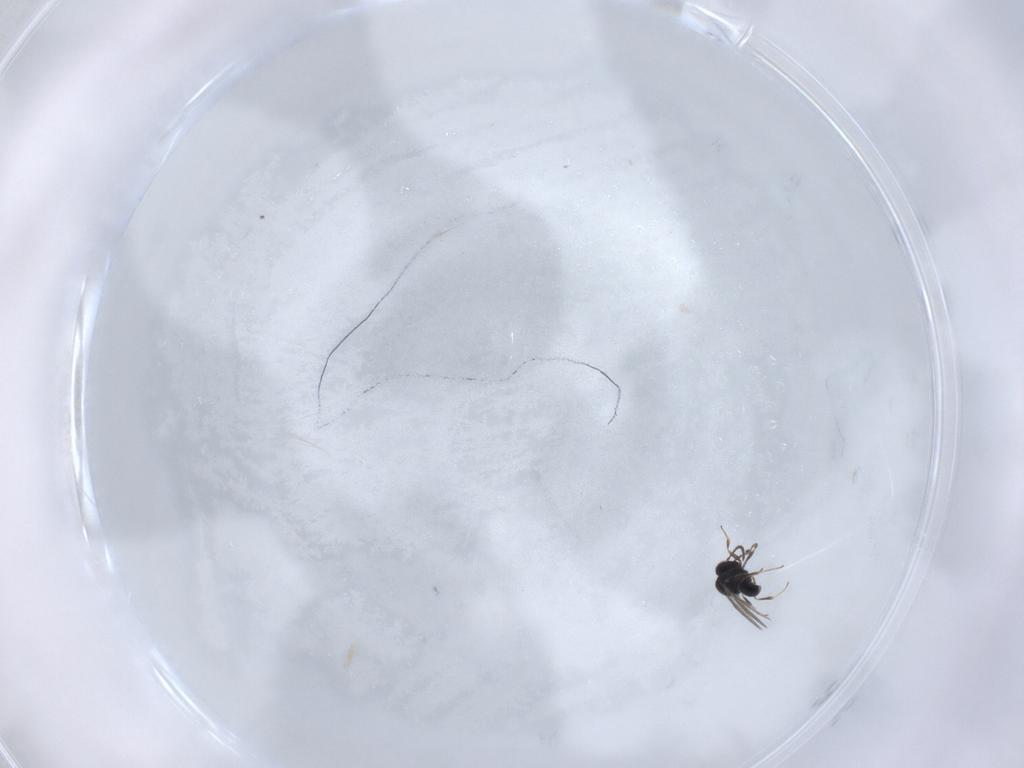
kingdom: Animalia
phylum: Arthropoda
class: Insecta
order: Hymenoptera
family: Scelionidae
